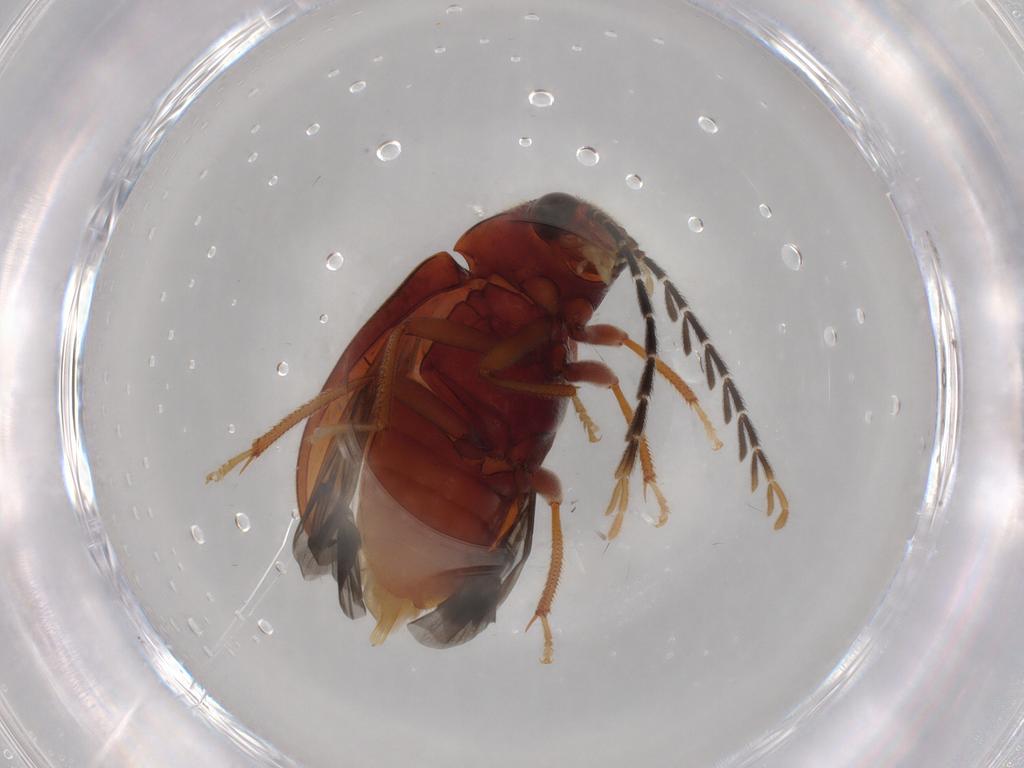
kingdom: Animalia
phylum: Arthropoda
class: Insecta
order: Coleoptera
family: Ptilodactylidae
